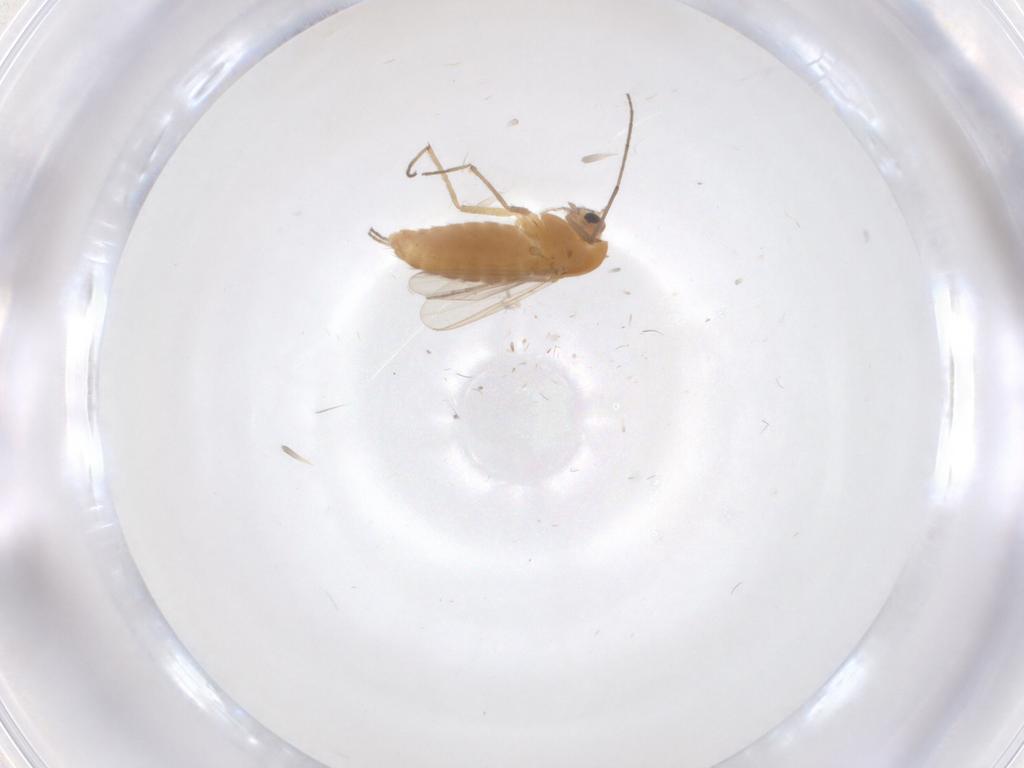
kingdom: Animalia
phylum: Arthropoda
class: Insecta
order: Diptera
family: Chironomidae
